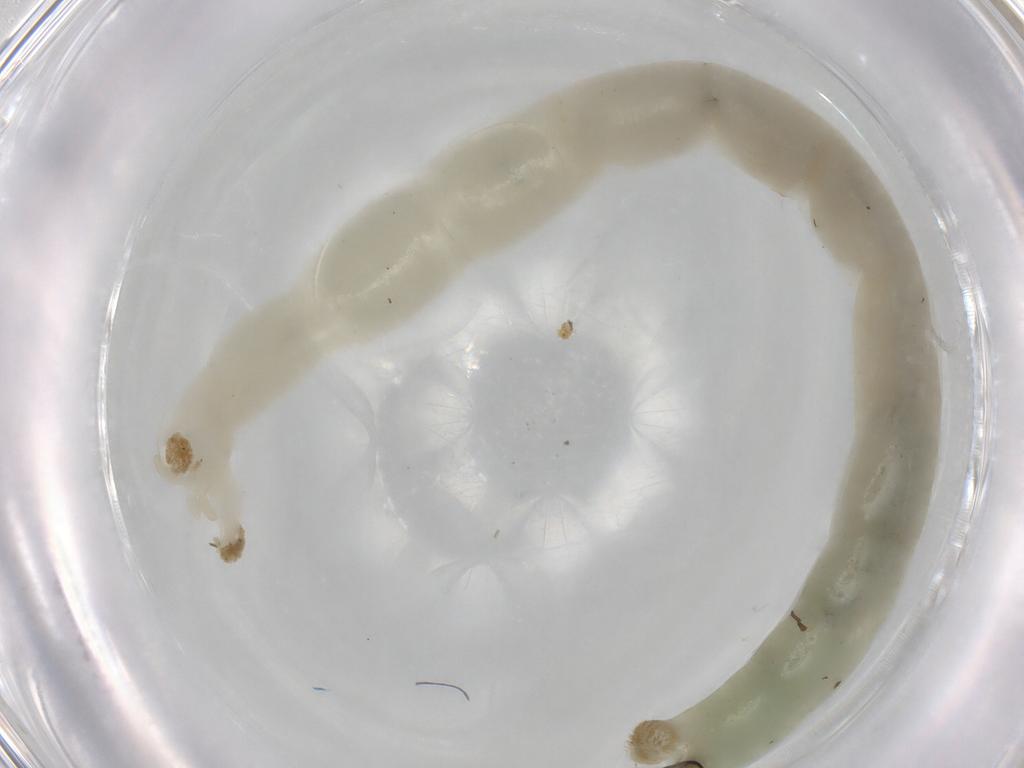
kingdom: Animalia
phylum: Arthropoda
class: Insecta
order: Diptera
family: Chironomidae
